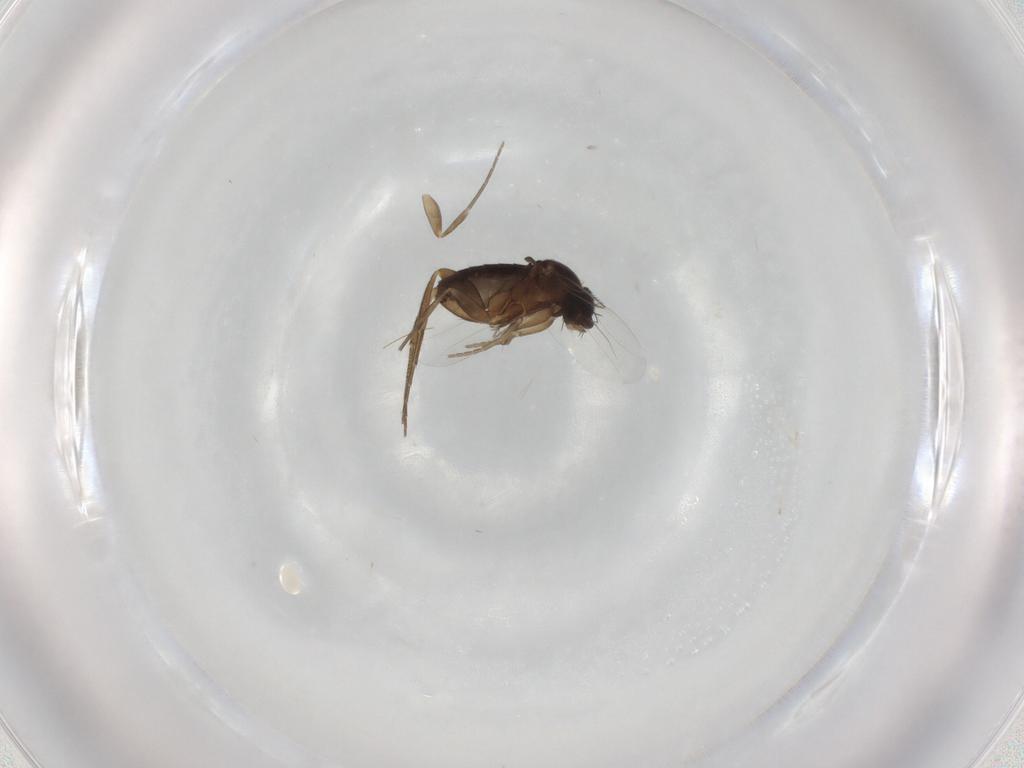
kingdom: Animalia
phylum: Arthropoda
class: Insecta
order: Diptera
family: Phoridae
